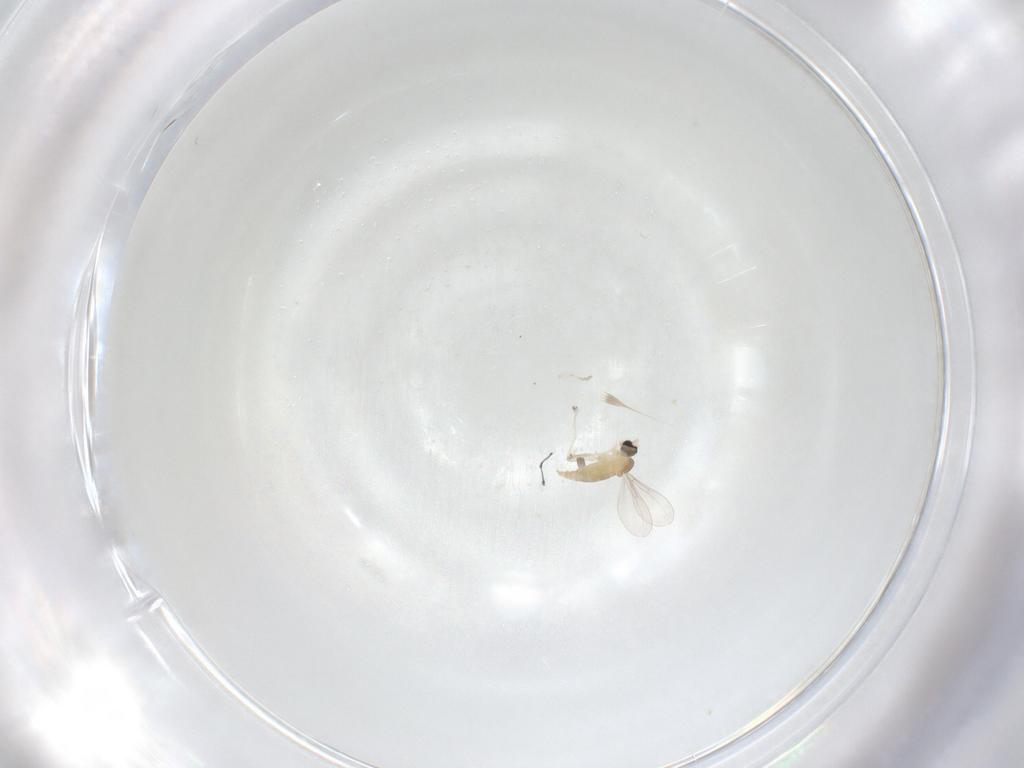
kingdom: Animalia
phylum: Arthropoda
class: Insecta
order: Diptera
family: Cecidomyiidae
